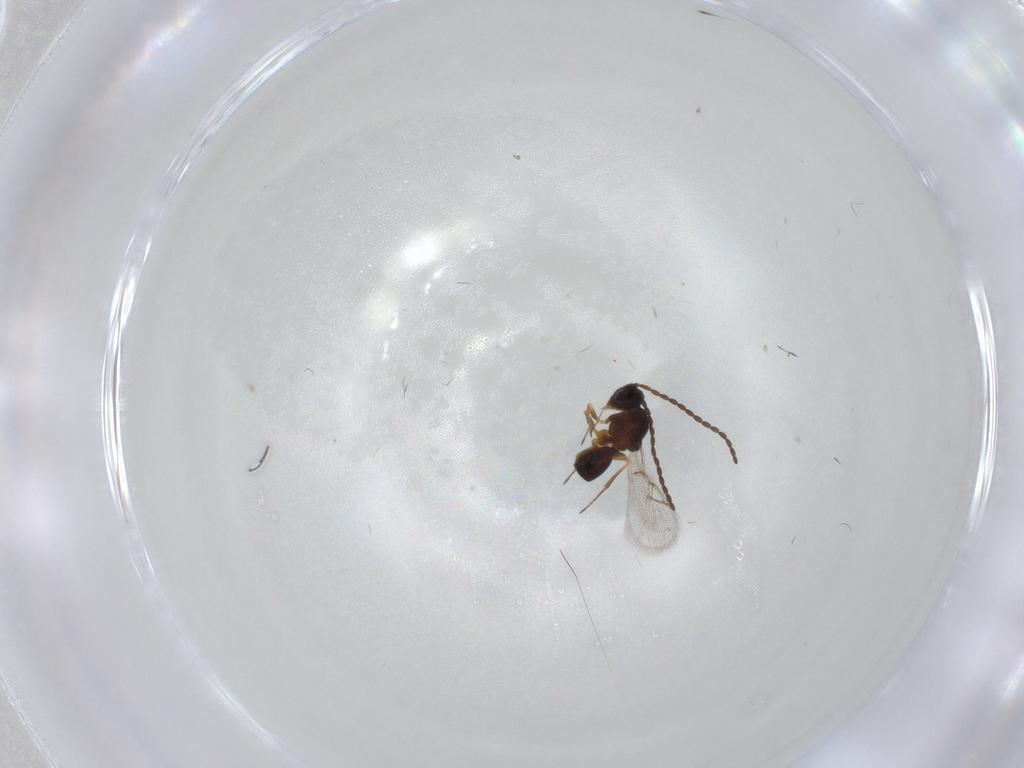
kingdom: Animalia
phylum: Arthropoda
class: Insecta
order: Hymenoptera
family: Figitidae
